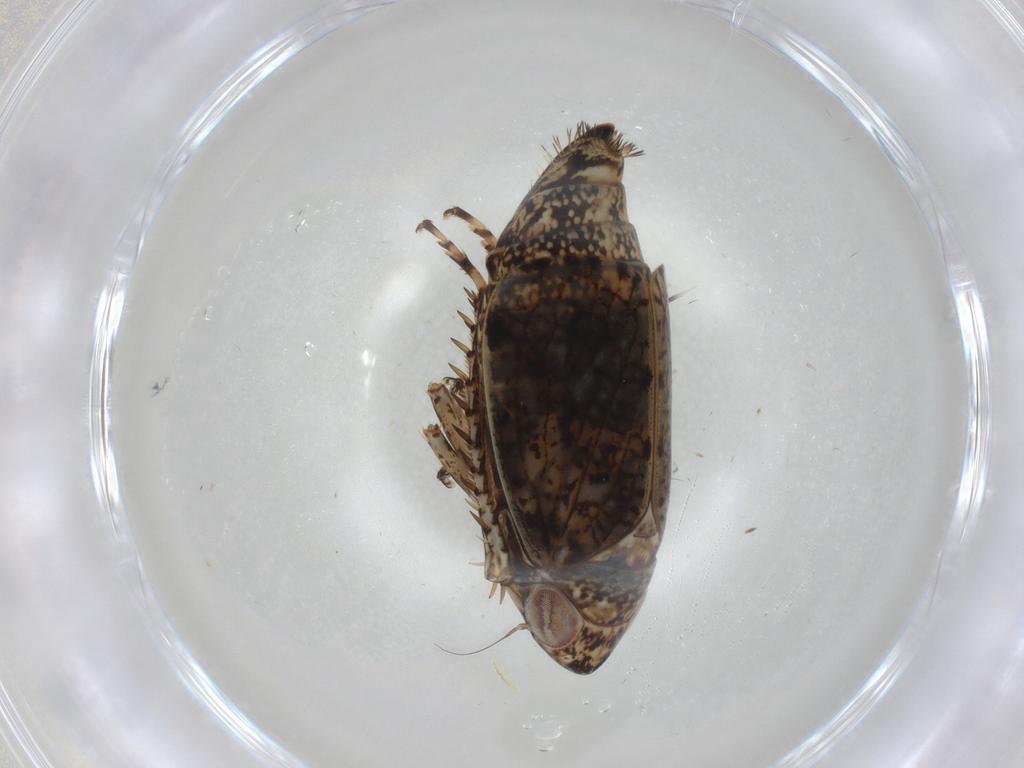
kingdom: Animalia
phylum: Arthropoda
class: Insecta
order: Hemiptera
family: Cicadellidae
